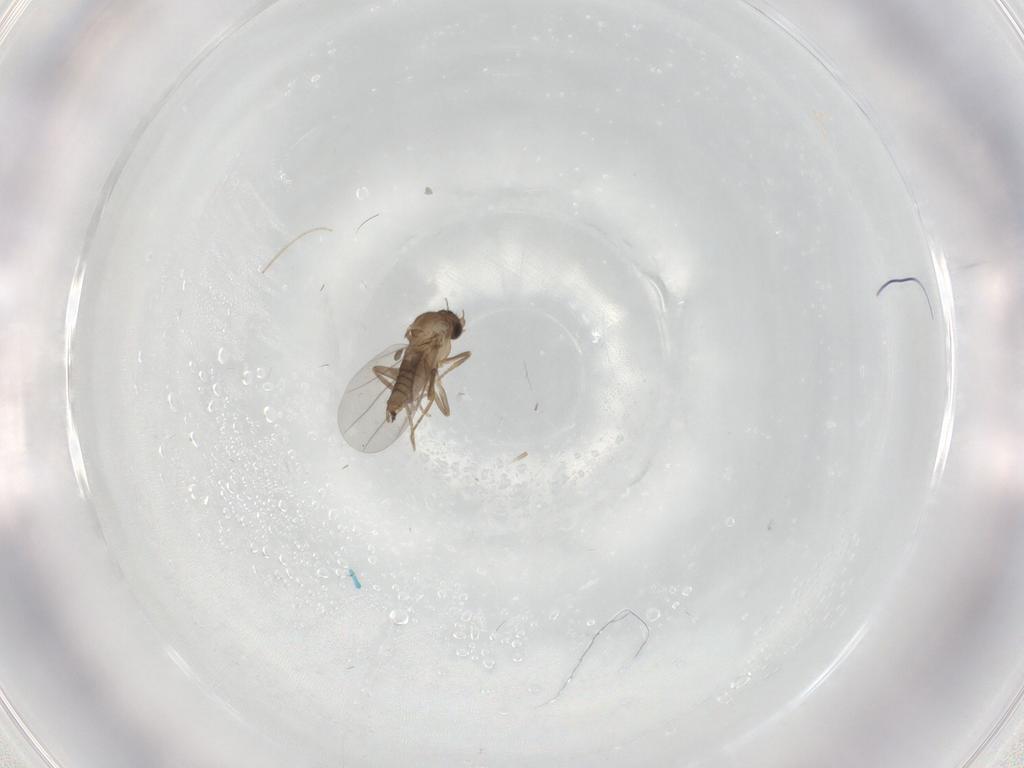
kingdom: Animalia
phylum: Arthropoda
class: Insecta
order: Diptera
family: Chironomidae
